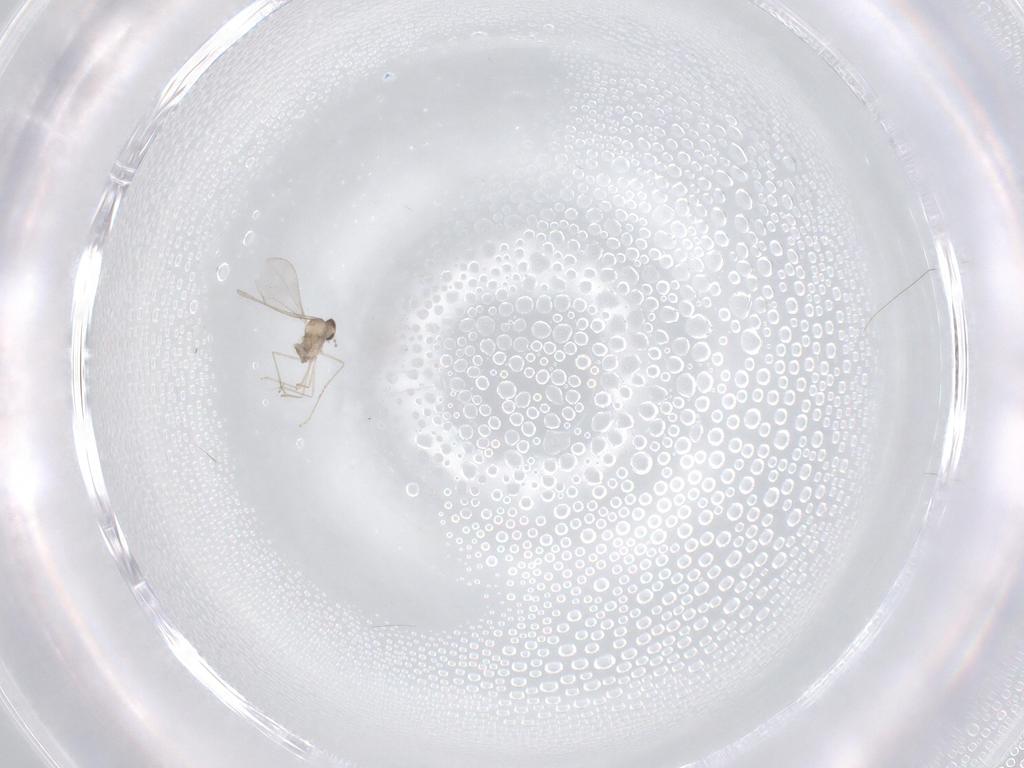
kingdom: Animalia
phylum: Arthropoda
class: Insecta
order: Diptera
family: Cecidomyiidae
